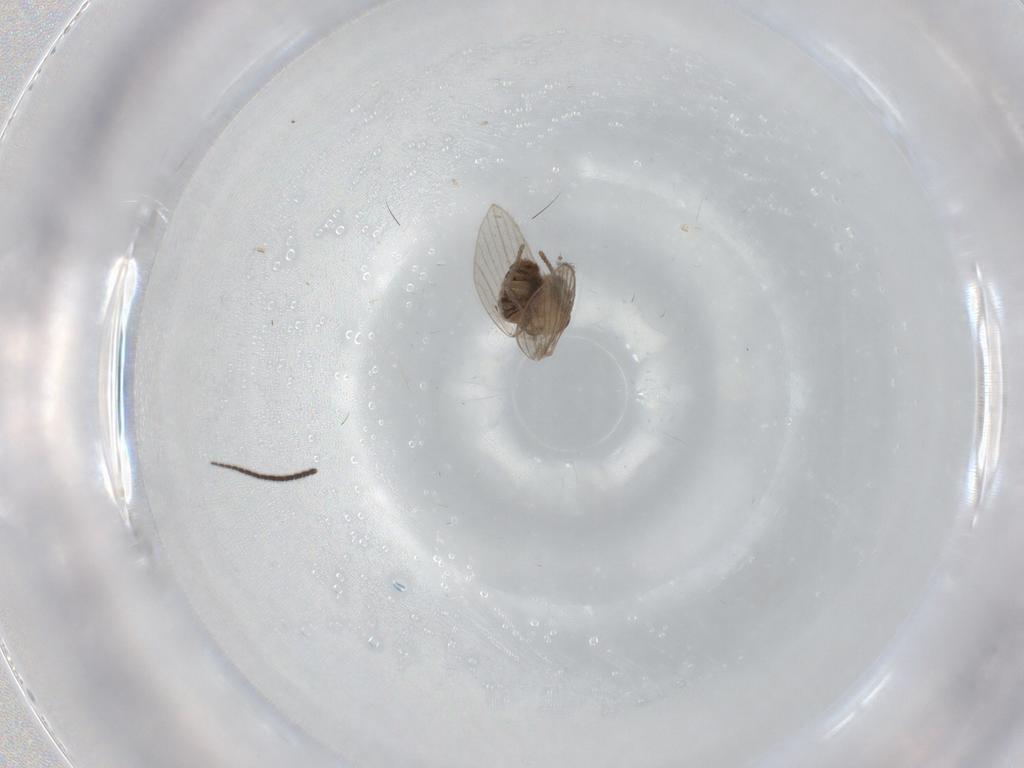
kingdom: Animalia
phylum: Arthropoda
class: Insecta
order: Diptera
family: Psychodidae
